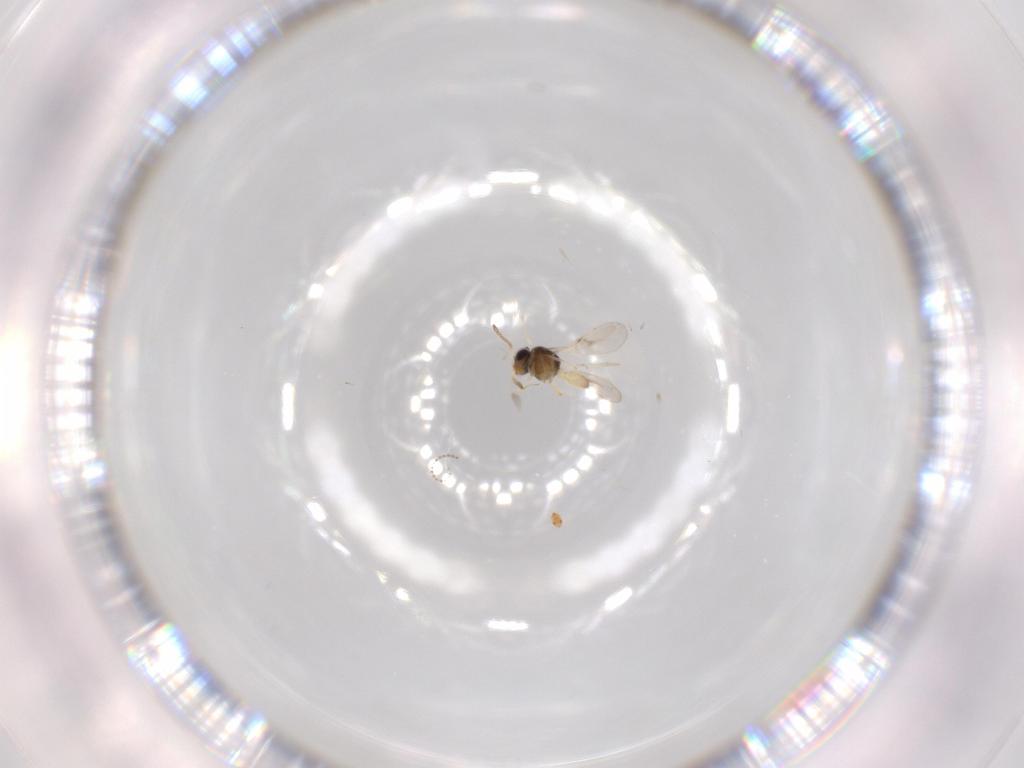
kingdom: Animalia
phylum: Arthropoda
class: Insecta
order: Hymenoptera
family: Scelionidae
